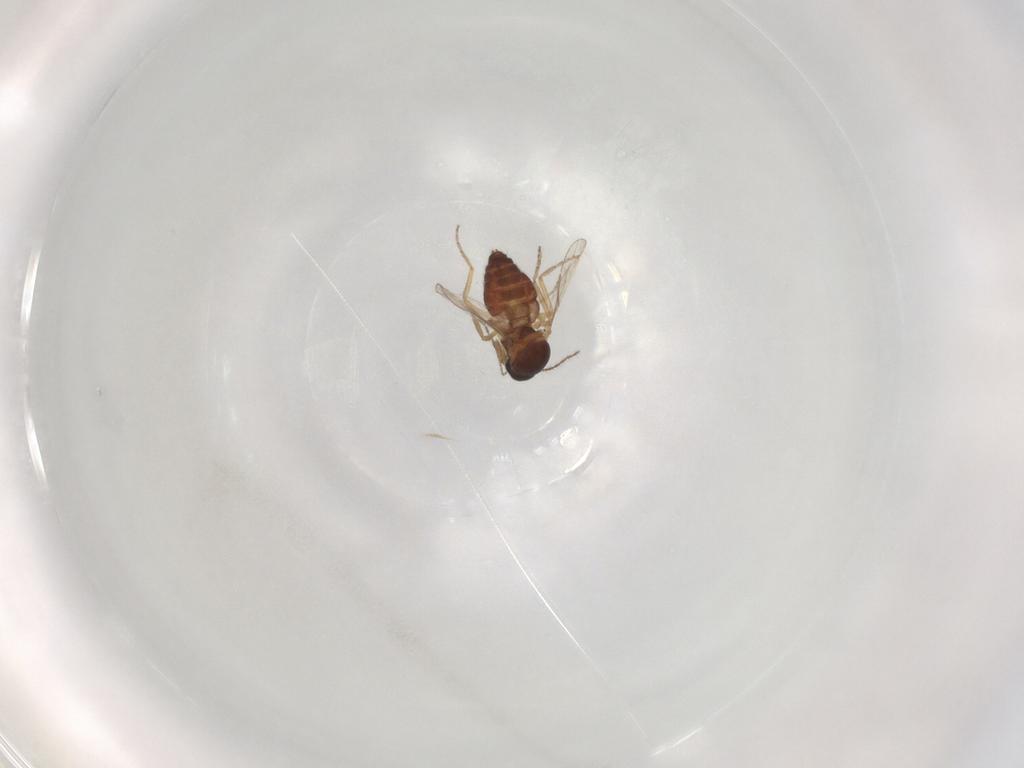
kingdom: Animalia
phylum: Arthropoda
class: Insecta
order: Diptera
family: Ceratopogonidae
